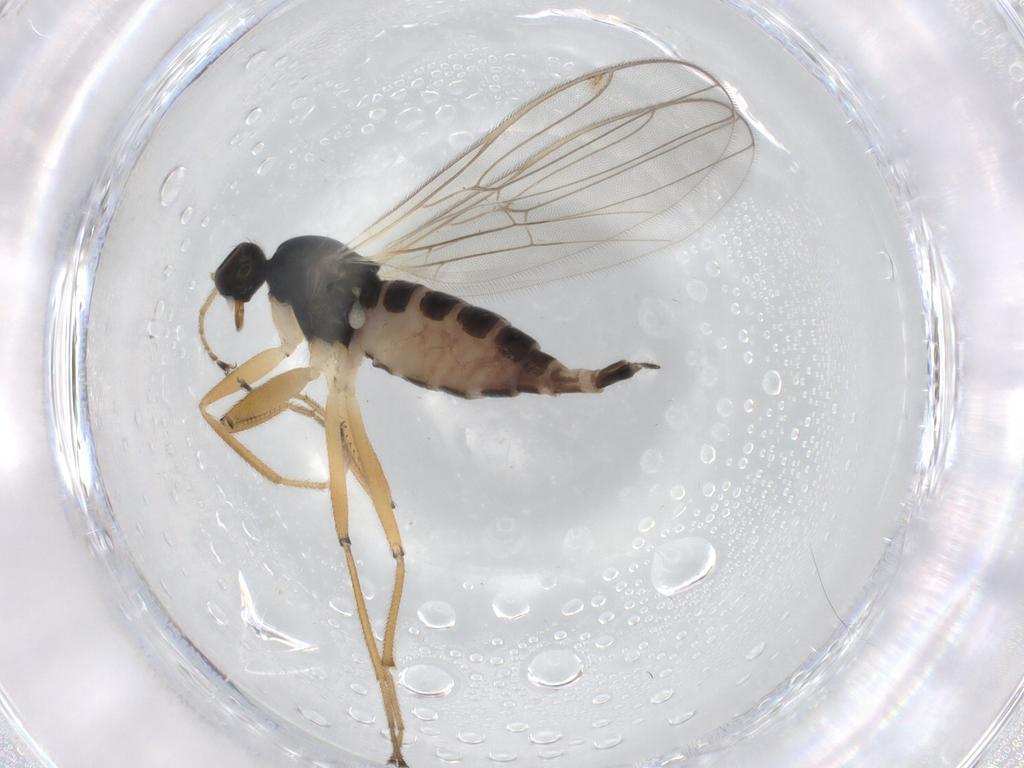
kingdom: Animalia
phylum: Arthropoda
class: Insecta
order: Diptera
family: Hybotidae
